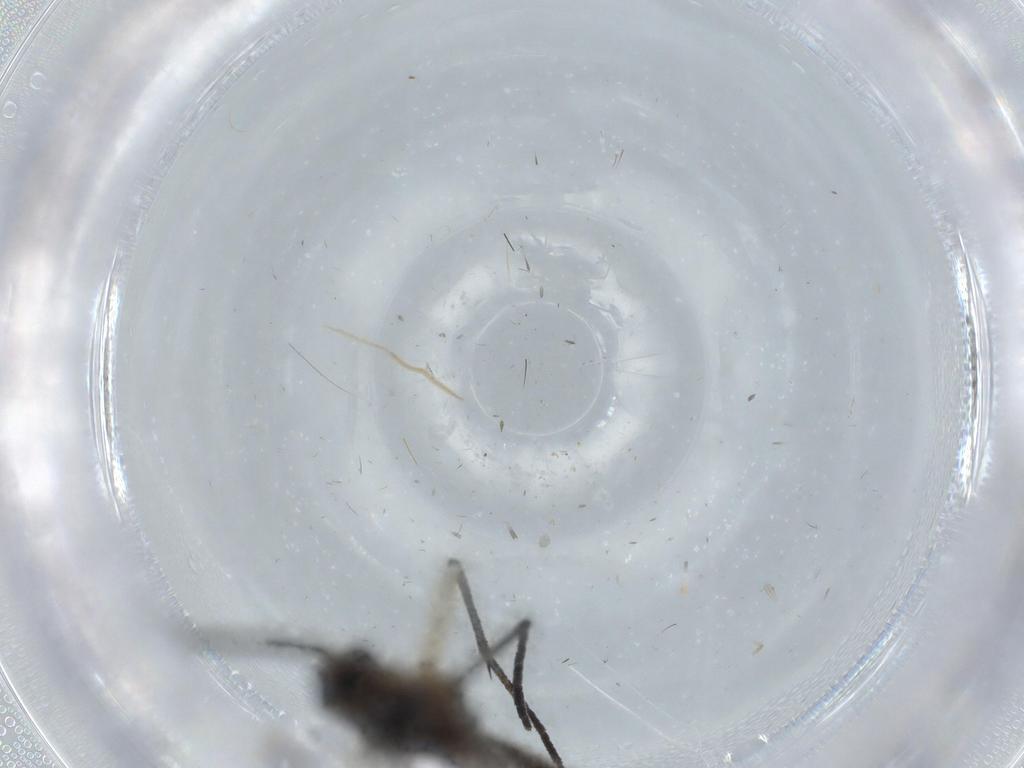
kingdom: Animalia
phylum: Arthropoda
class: Insecta
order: Diptera
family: Sciaridae
